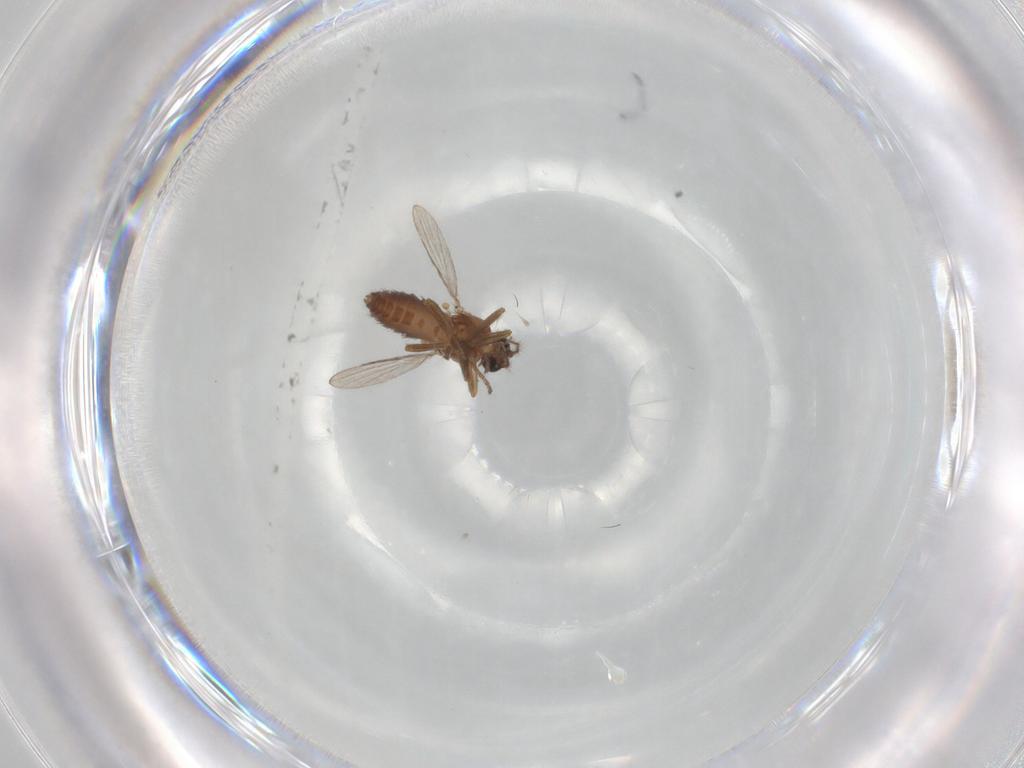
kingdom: Animalia
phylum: Arthropoda
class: Insecta
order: Diptera
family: Ceratopogonidae
